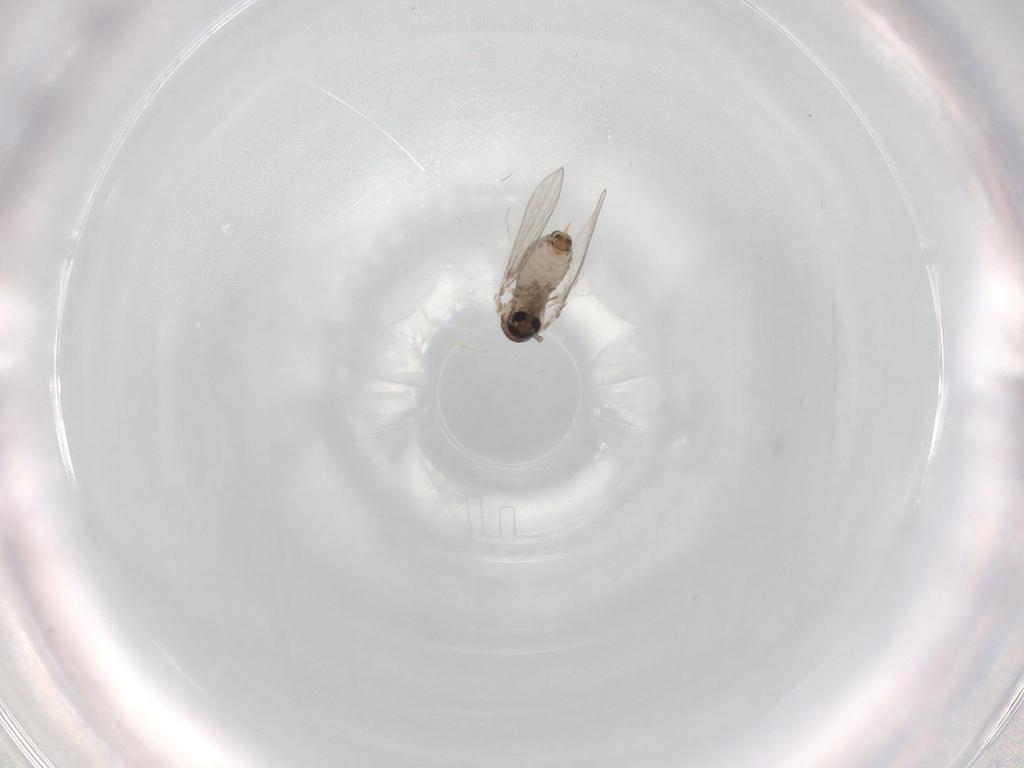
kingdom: Animalia
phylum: Arthropoda
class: Insecta
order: Diptera
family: Psychodidae
